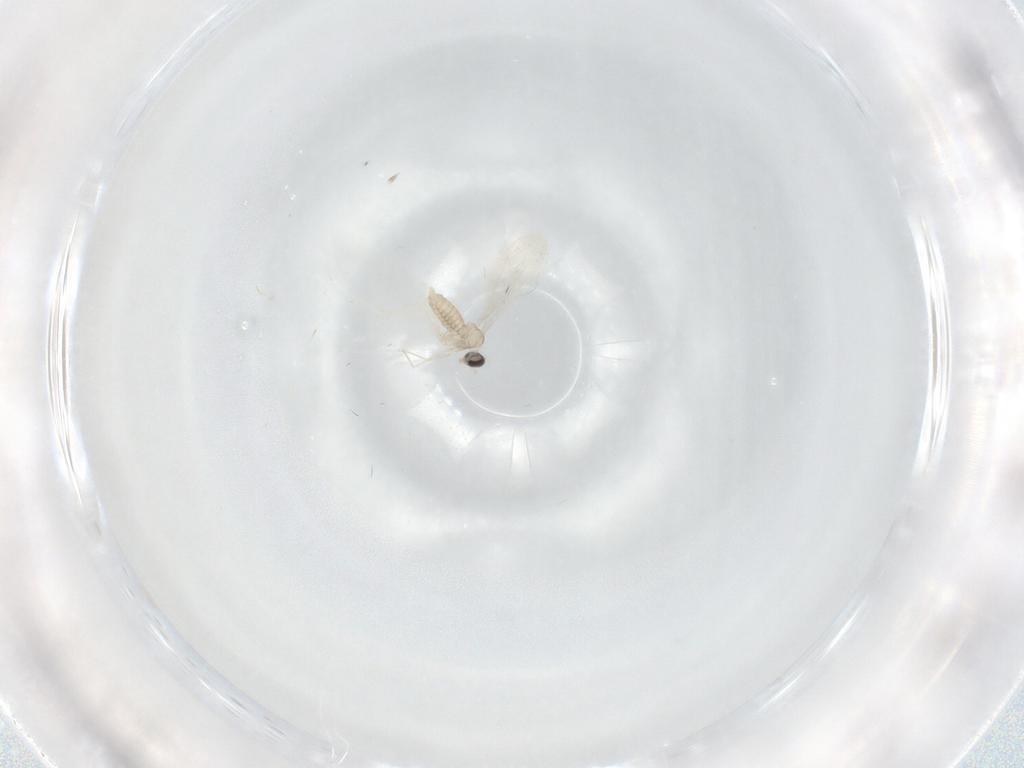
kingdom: Animalia
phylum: Arthropoda
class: Insecta
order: Diptera
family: Cecidomyiidae
